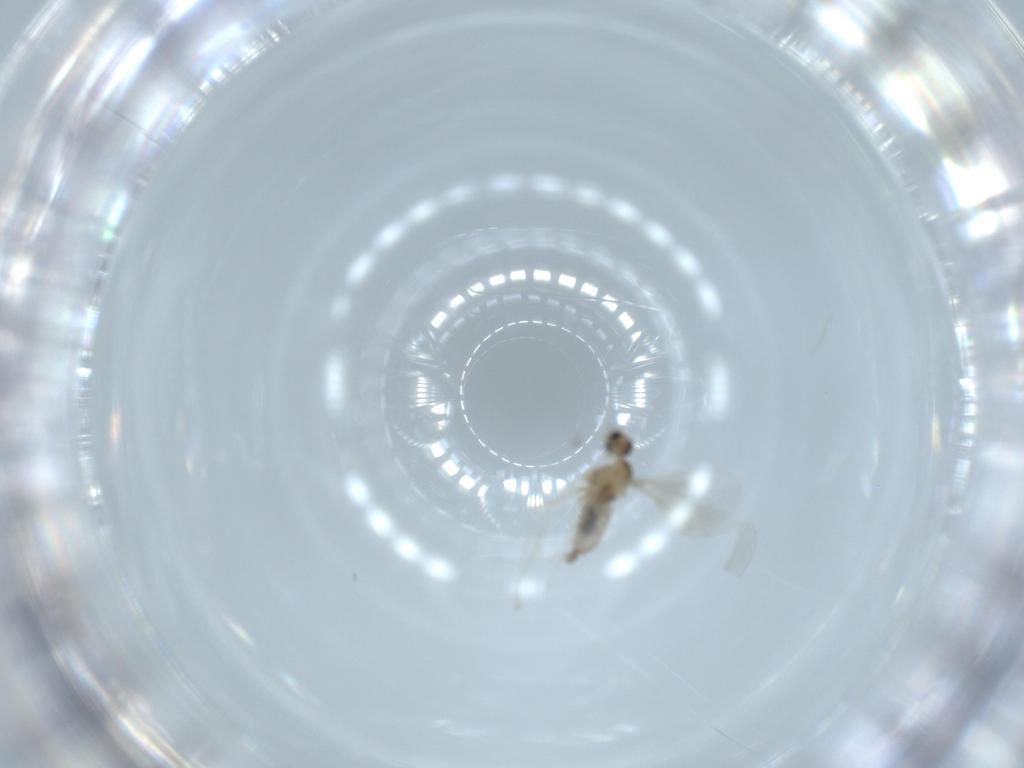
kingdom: Animalia
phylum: Arthropoda
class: Insecta
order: Diptera
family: Cecidomyiidae
